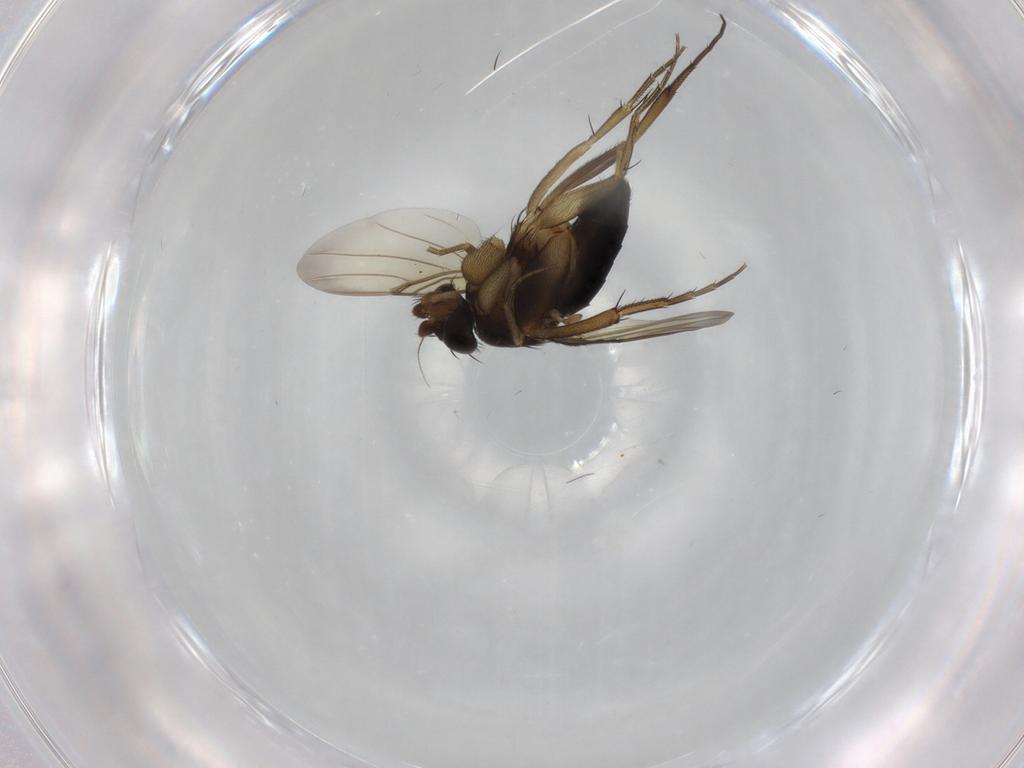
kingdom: Animalia
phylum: Arthropoda
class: Insecta
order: Diptera
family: Phoridae
